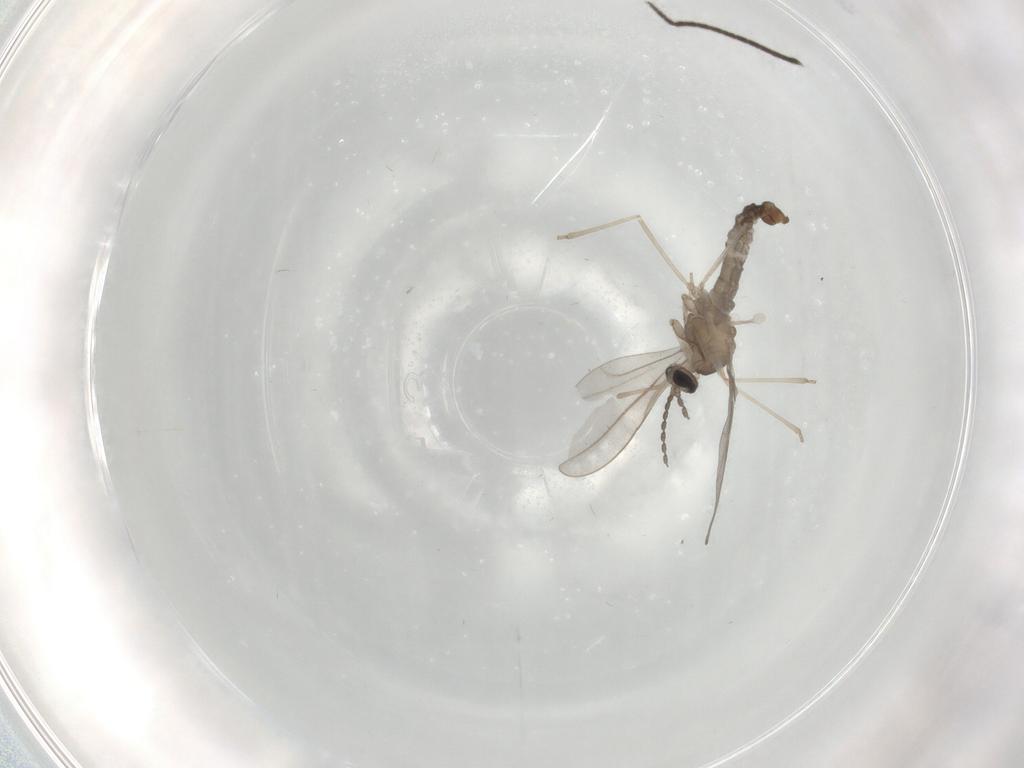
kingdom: Animalia
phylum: Arthropoda
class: Insecta
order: Diptera
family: Cecidomyiidae
